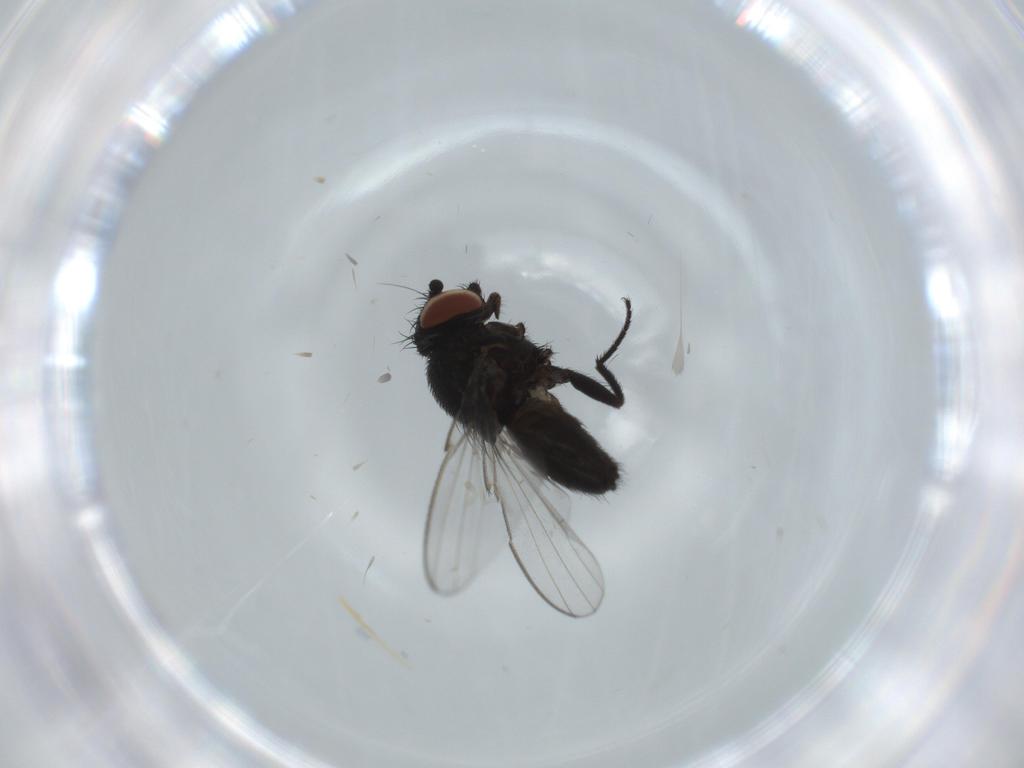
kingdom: Animalia
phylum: Arthropoda
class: Insecta
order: Diptera
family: Milichiidae
